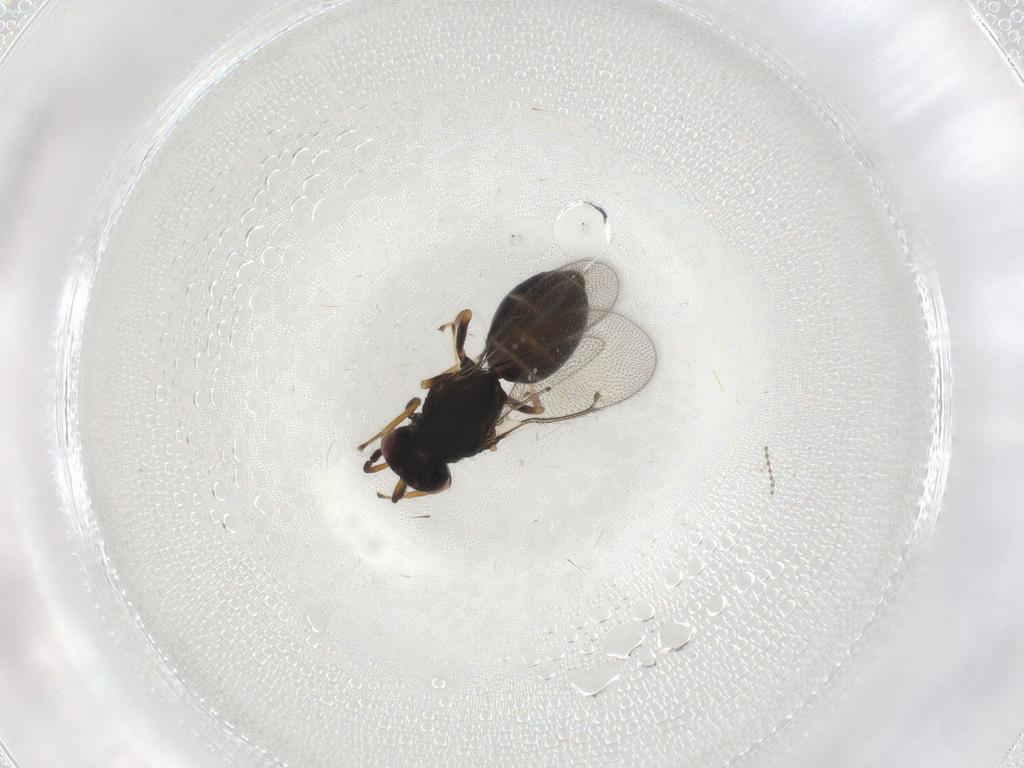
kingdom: Animalia
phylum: Arthropoda
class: Insecta
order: Hymenoptera
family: Eulophidae
